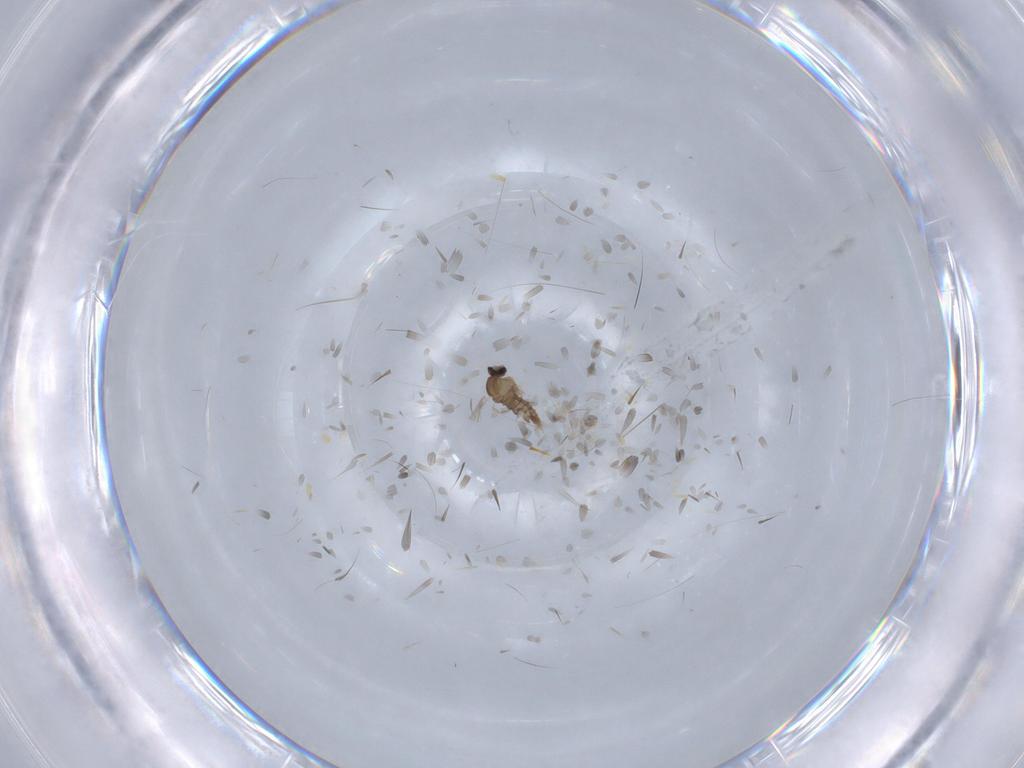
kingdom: Animalia
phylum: Arthropoda
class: Insecta
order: Diptera
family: Muscidae
